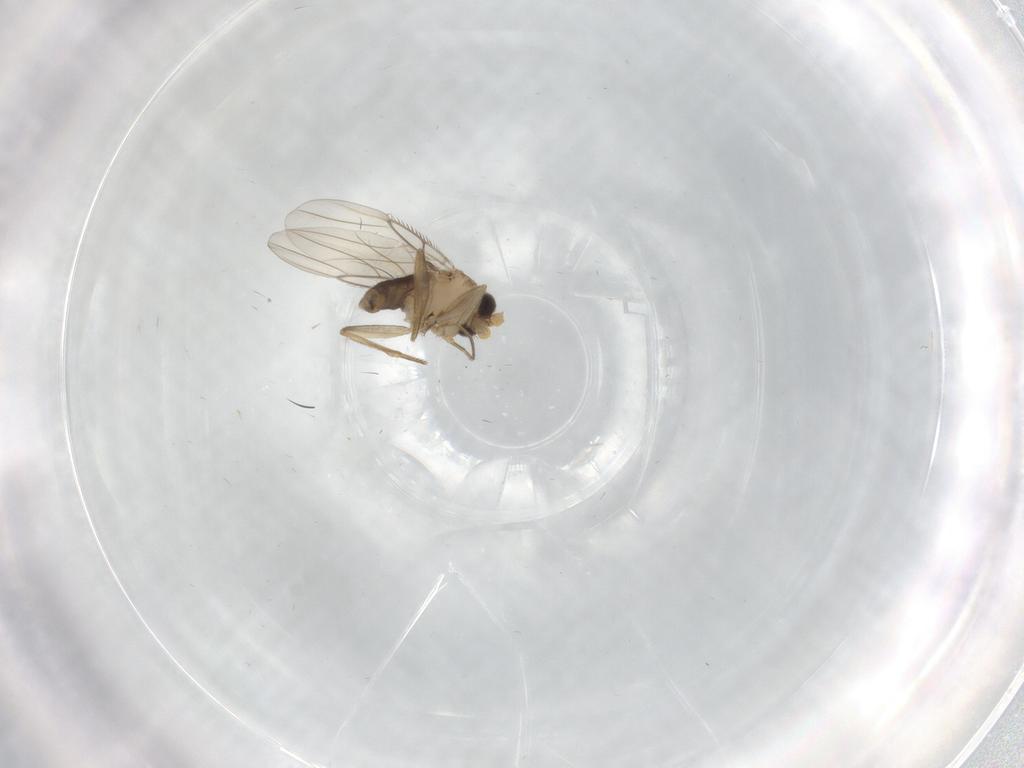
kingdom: Animalia
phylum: Arthropoda
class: Insecta
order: Diptera
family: Phoridae
